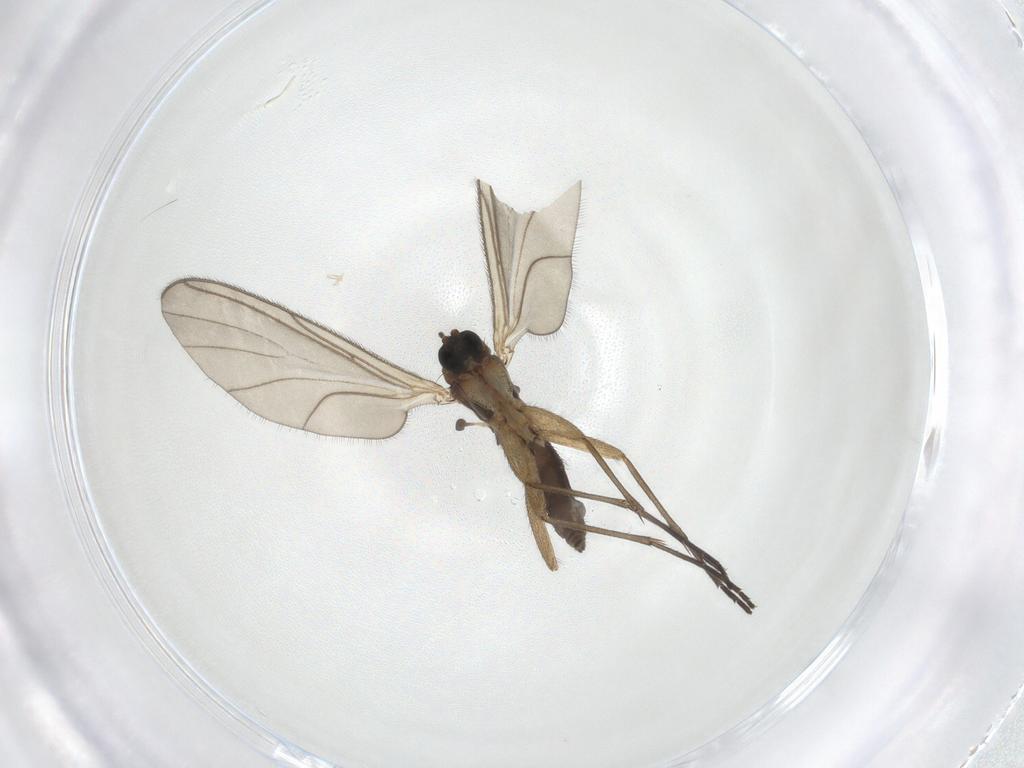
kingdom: Animalia
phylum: Arthropoda
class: Insecta
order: Diptera
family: Sciaridae
